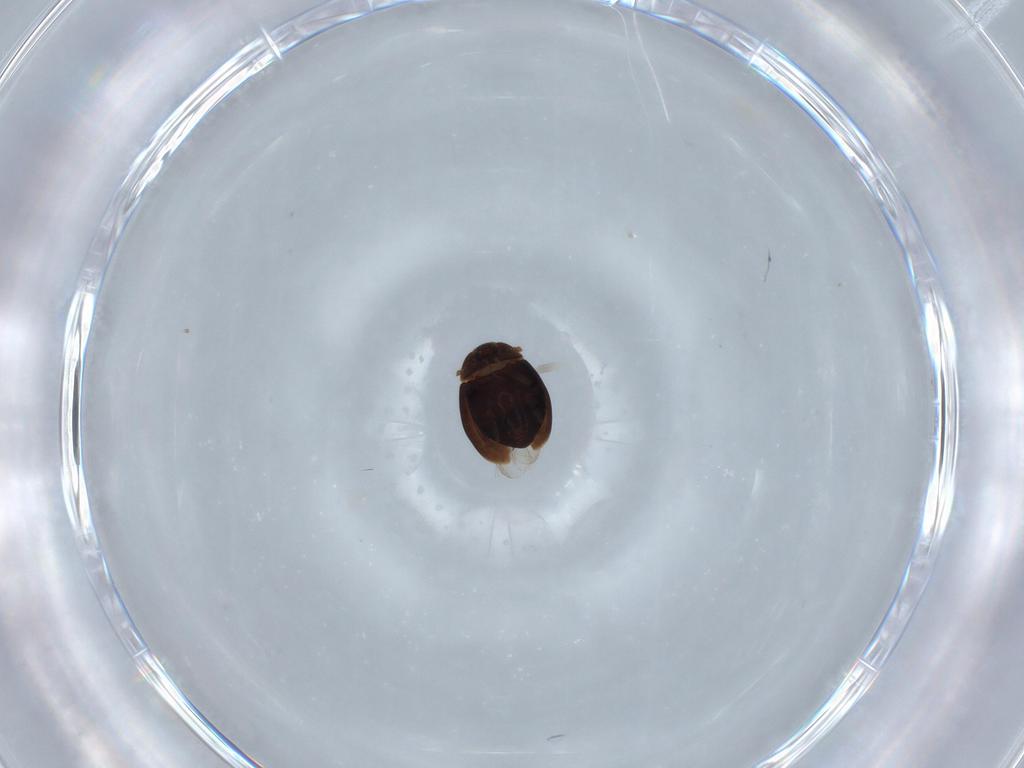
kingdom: Animalia
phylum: Arthropoda
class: Insecta
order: Coleoptera
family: Corylophidae
